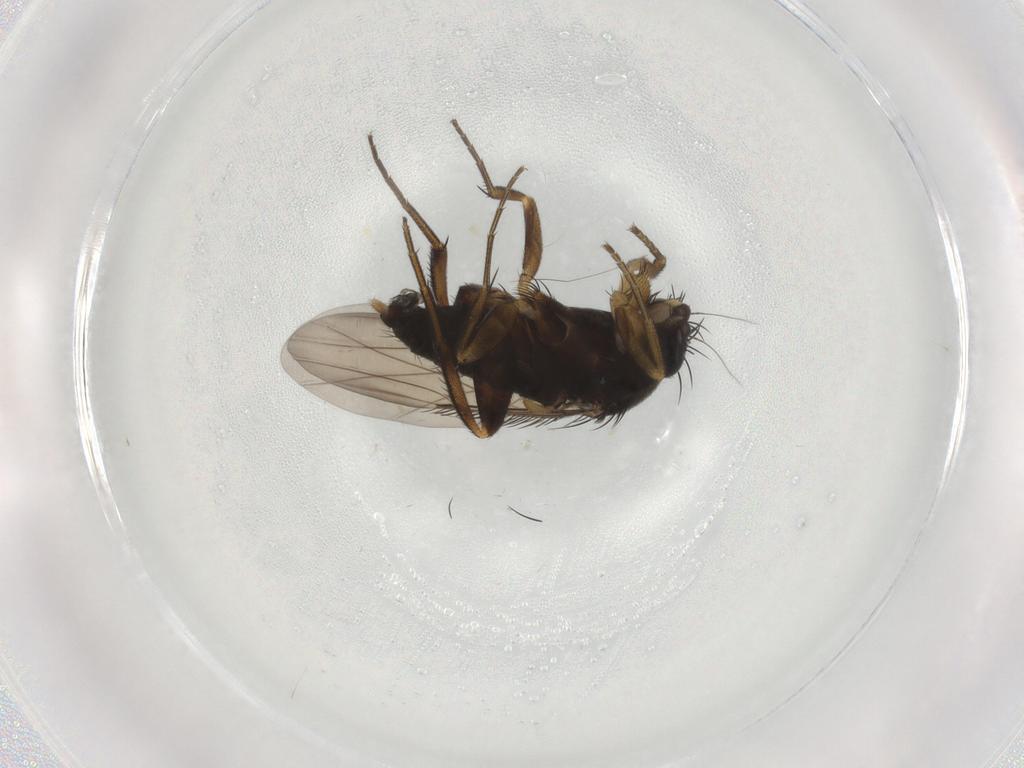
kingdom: Animalia
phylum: Arthropoda
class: Insecta
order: Diptera
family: Phoridae
